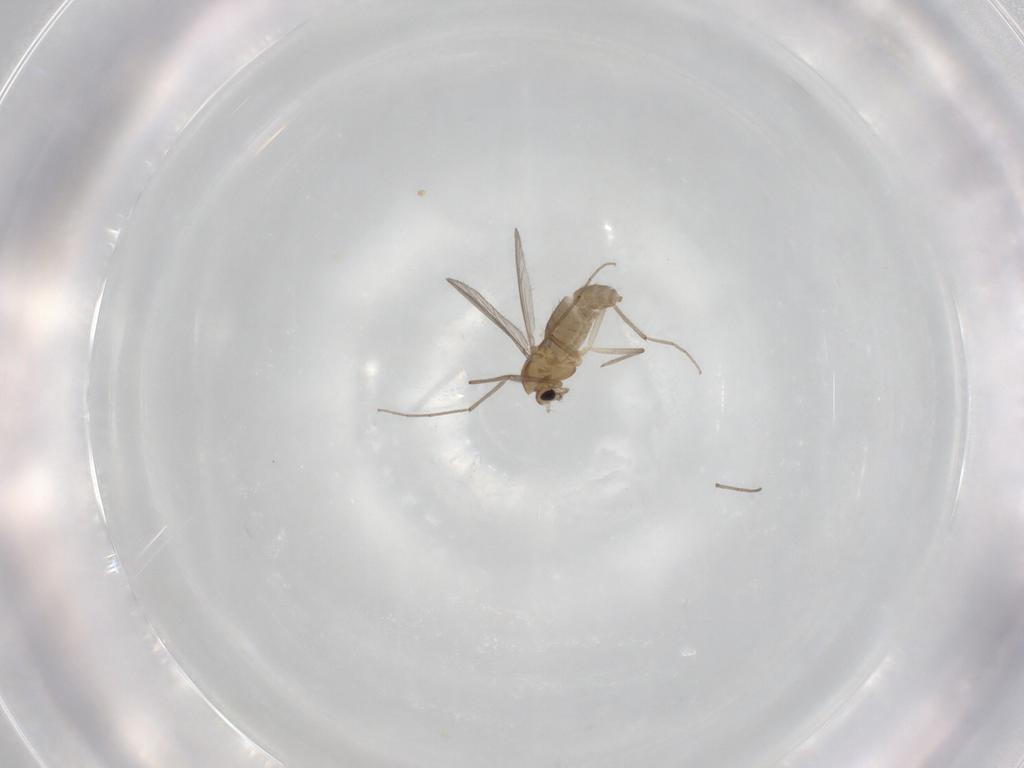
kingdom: Animalia
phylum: Arthropoda
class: Insecta
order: Diptera
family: Chironomidae
